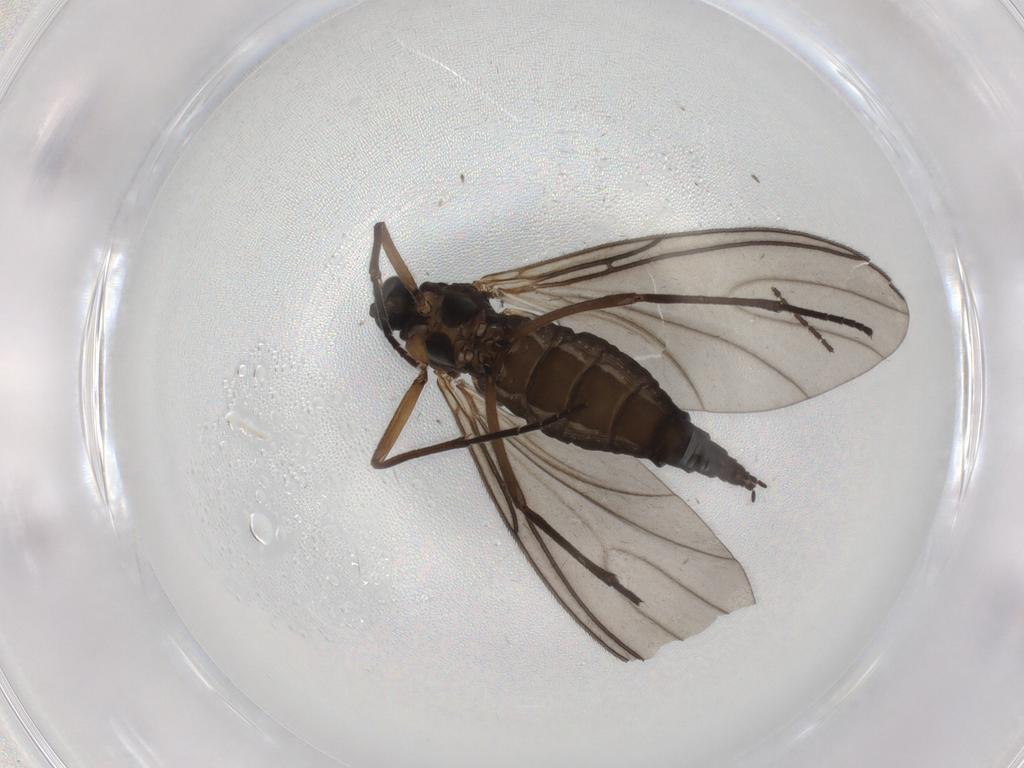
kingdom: Animalia
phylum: Arthropoda
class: Insecta
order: Diptera
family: Sciaridae
